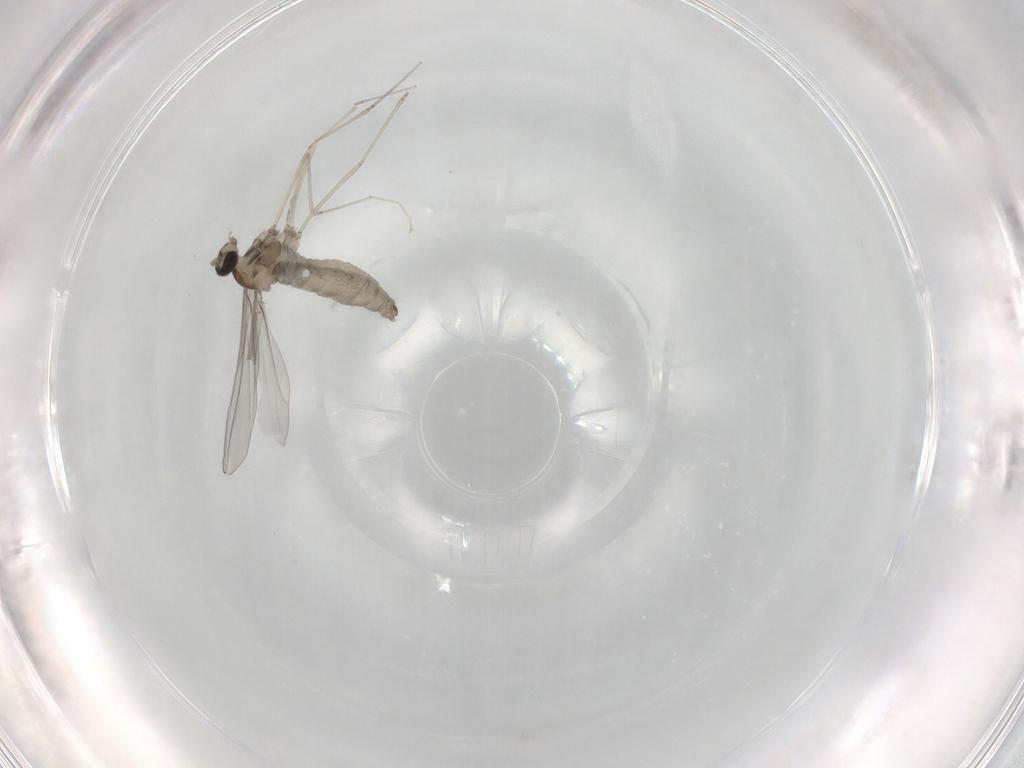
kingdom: Animalia
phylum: Arthropoda
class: Insecta
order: Diptera
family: Cecidomyiidae
